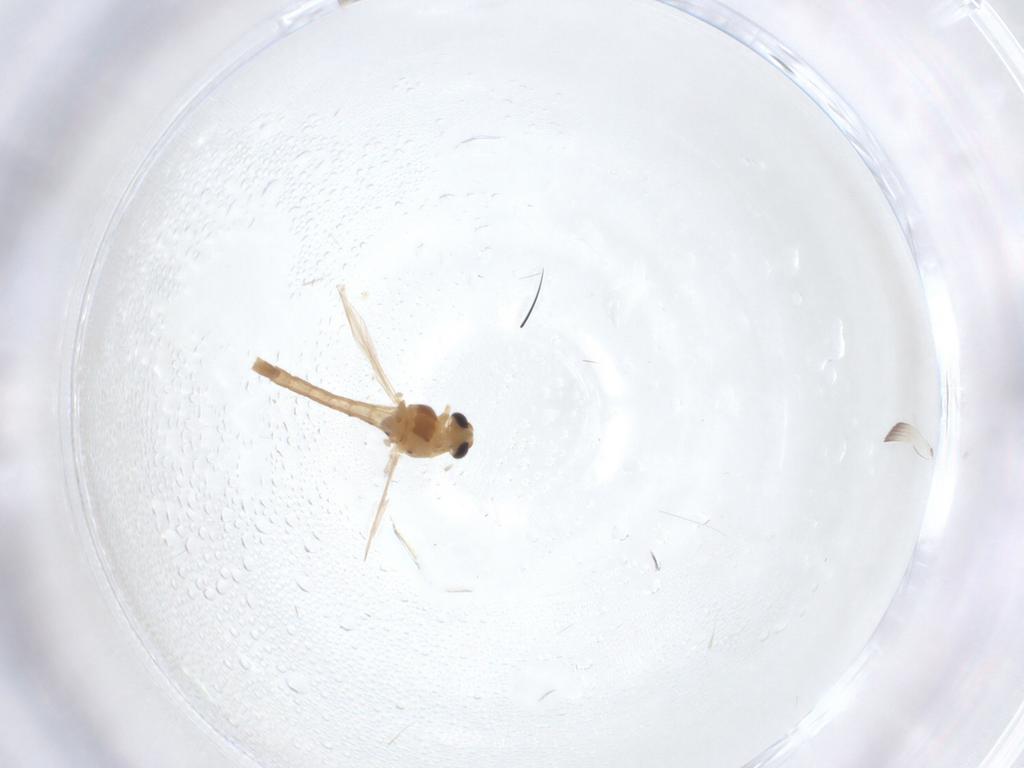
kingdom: Animalia
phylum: Arthropoda
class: Insecta
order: Diptera
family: Chironomidae
